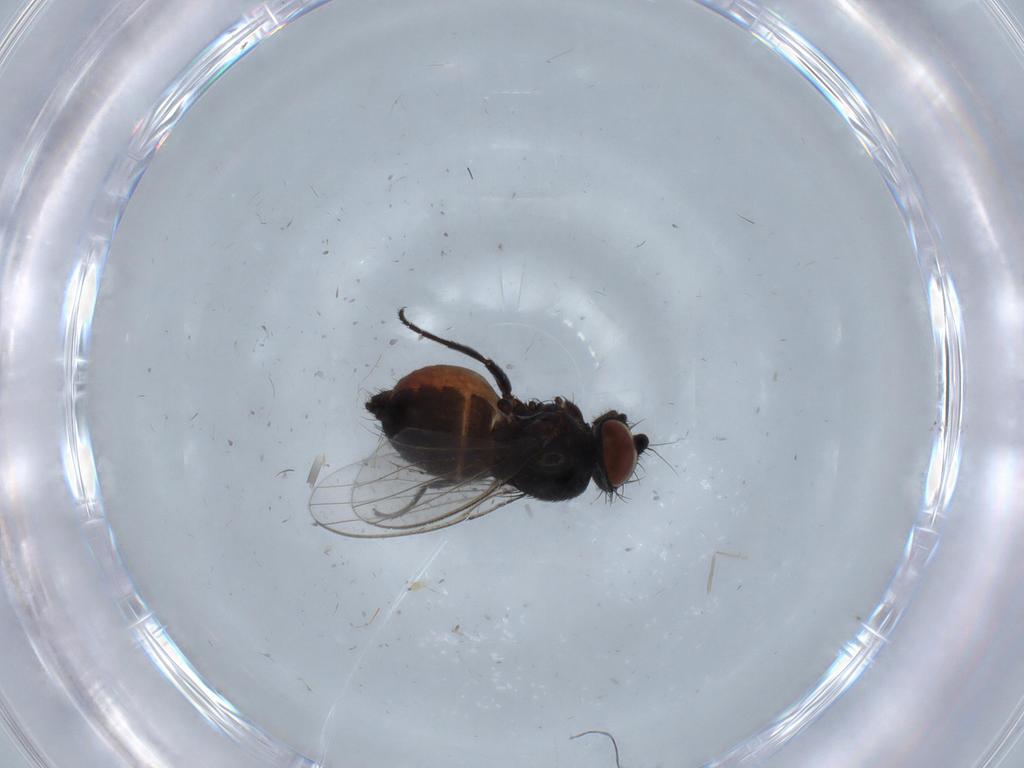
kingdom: Animalia
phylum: Arthropoda
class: Insecta
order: Diptera
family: Milichiidae
